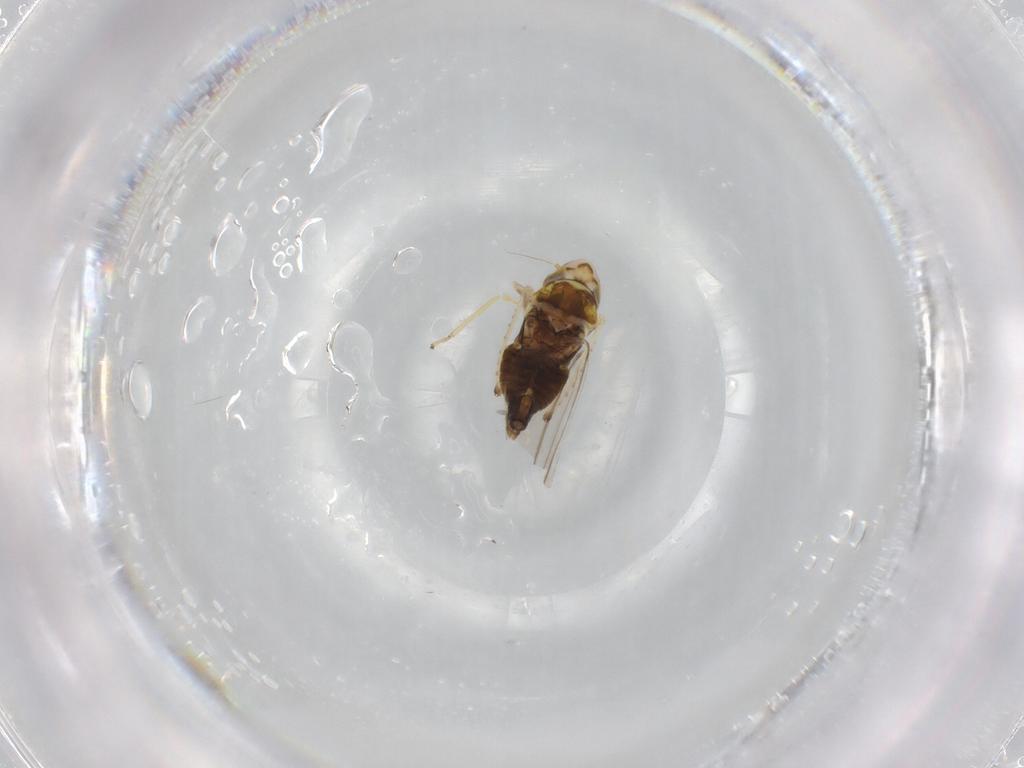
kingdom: Animalia
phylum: Arthropoda
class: Insecta
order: Hemiptera
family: Cicadellidae
